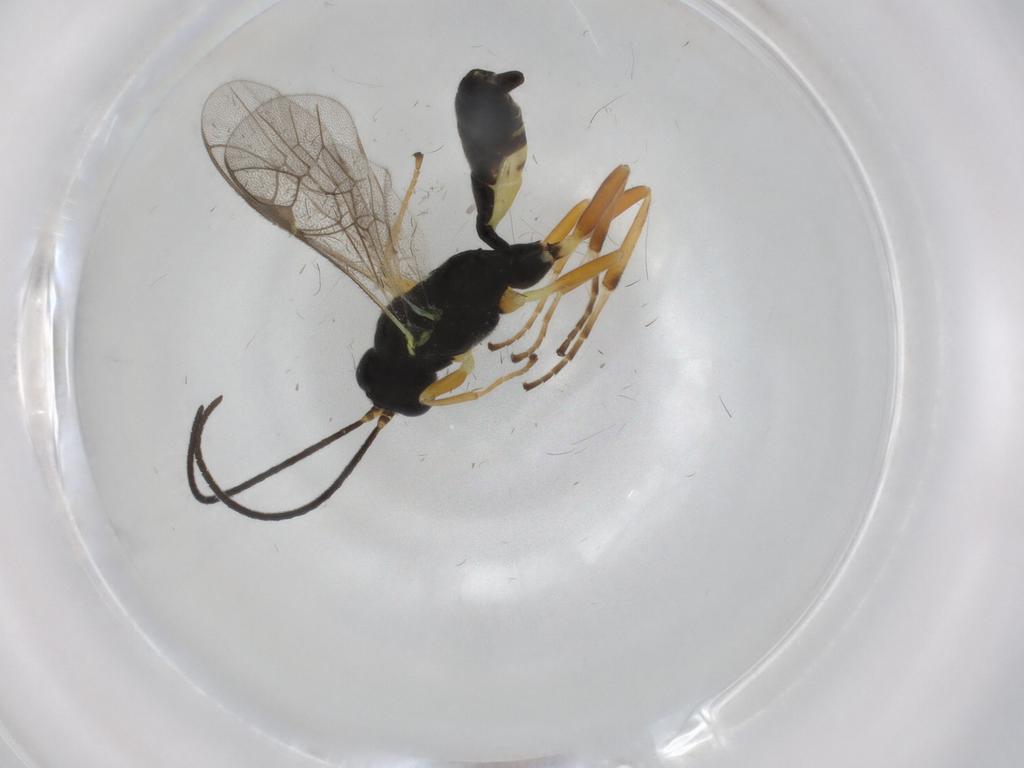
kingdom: Animalia
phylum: Arthropoda
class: Insecta
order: Hymenoptera
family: Ichneumonidae
